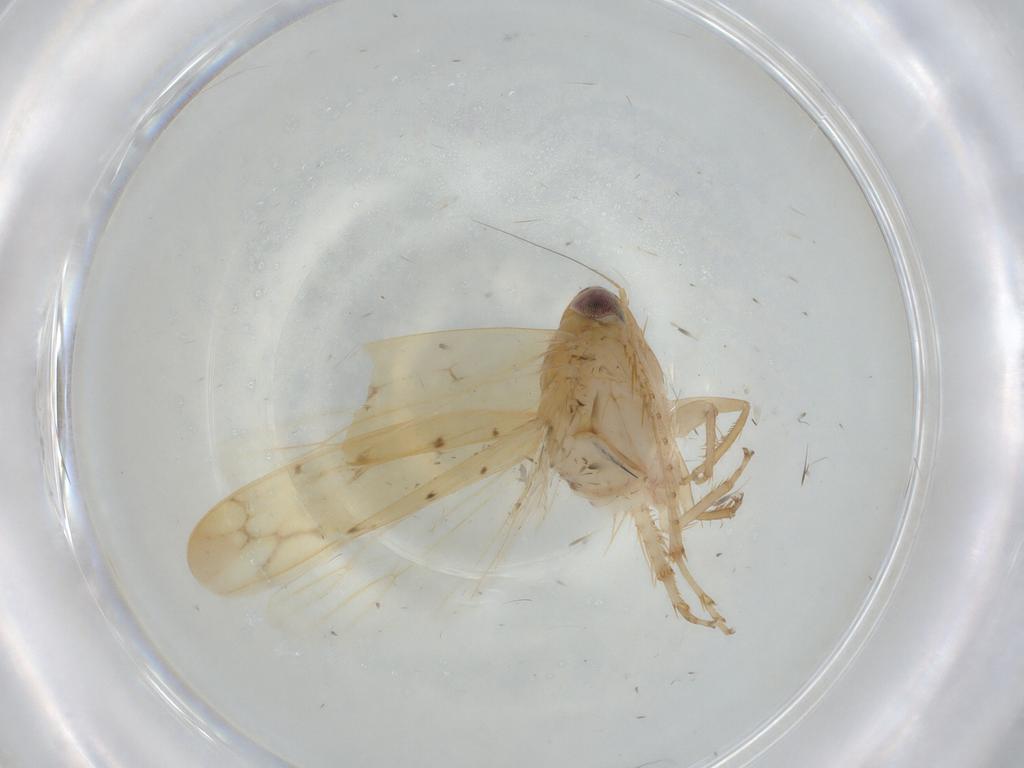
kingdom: Animalia
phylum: Arthropoda
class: Insecta
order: Hemiptera
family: Cicadellidae
